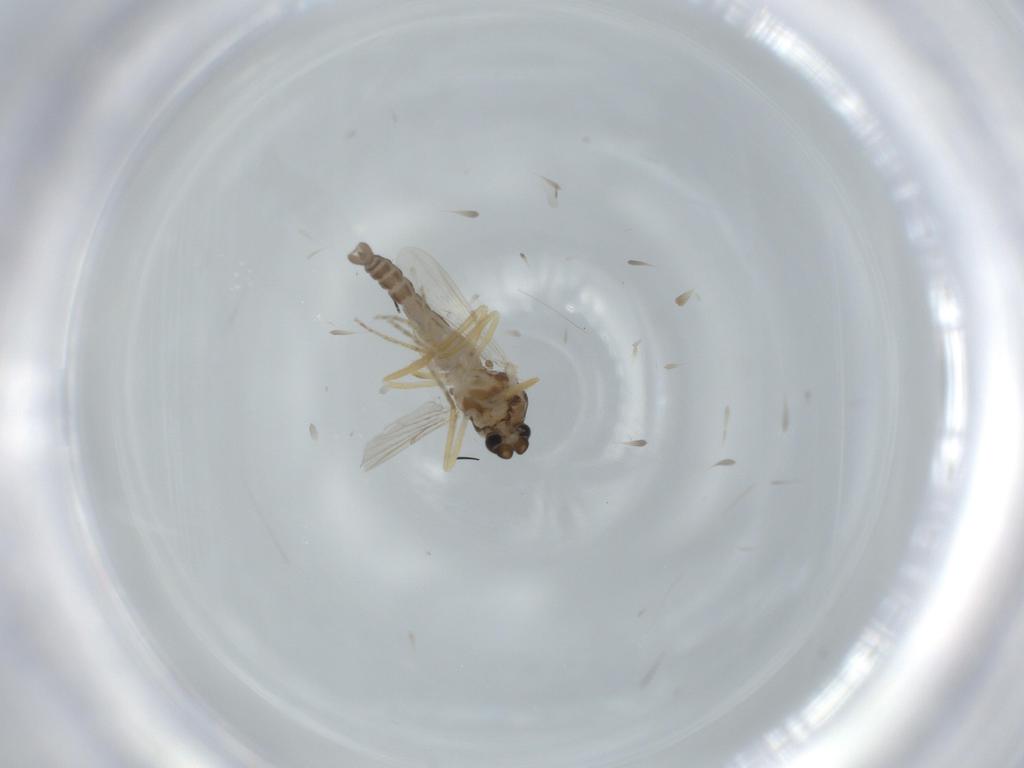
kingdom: Animalia
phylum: Arthropoda
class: Insecta
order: Diptera
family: Ceratopogonidae
